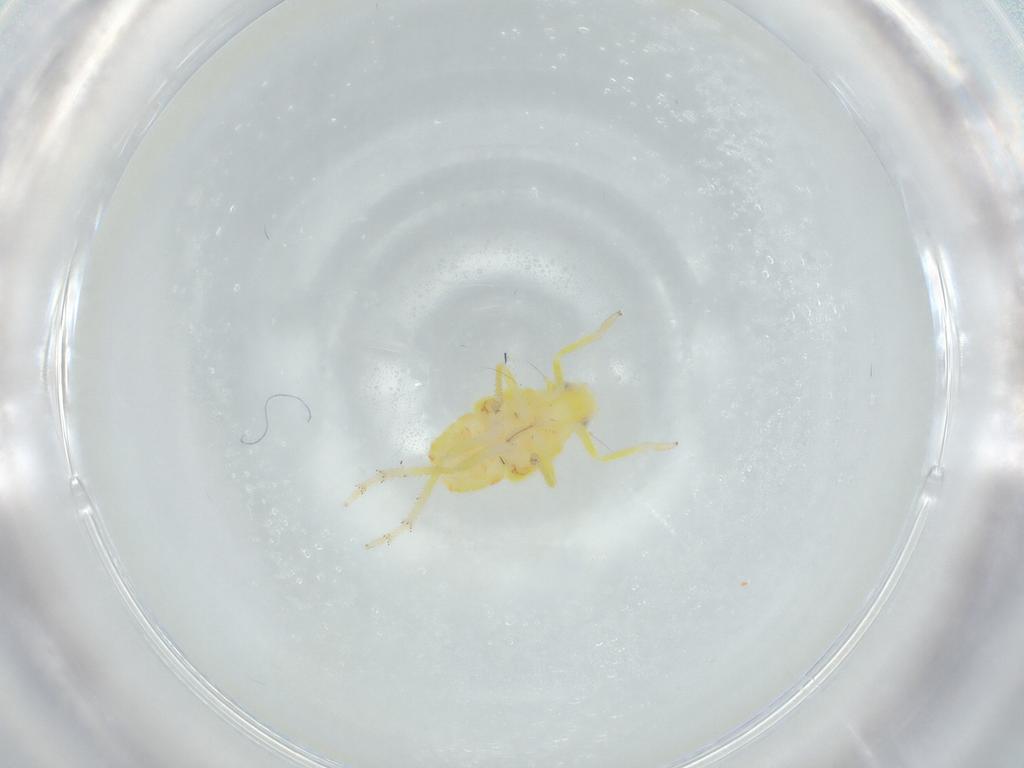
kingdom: Animalia
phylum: Arthropoda
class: Insecta
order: Hemiptera
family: Tropiduchidae
